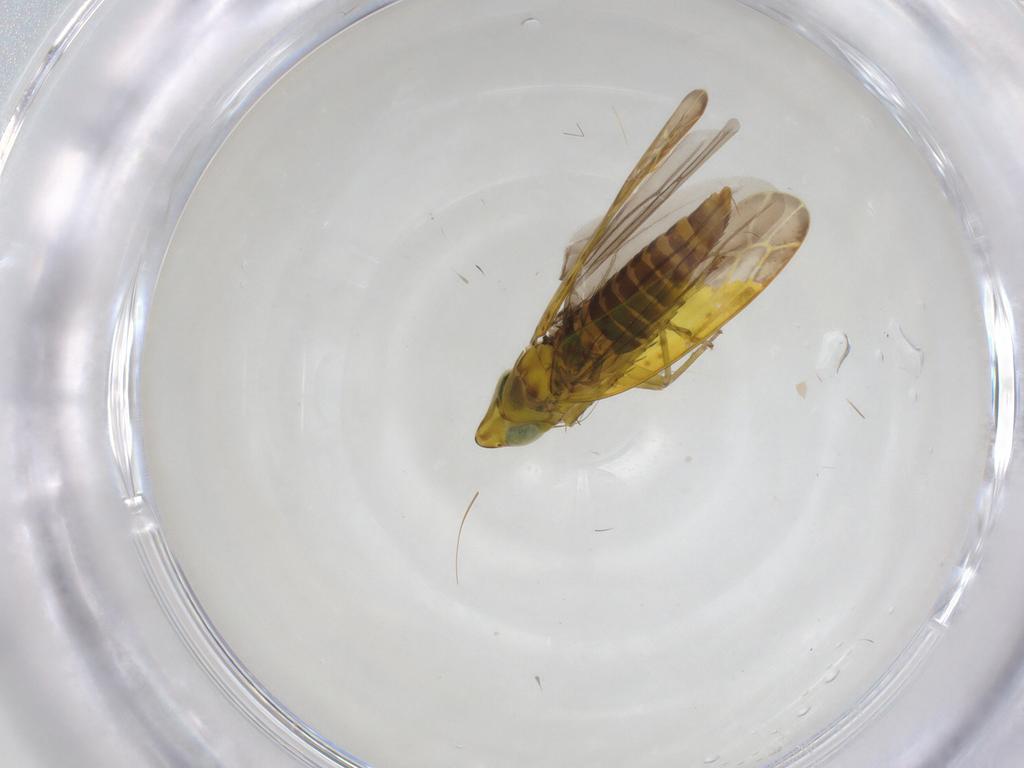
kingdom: Animalia
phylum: Arthropoda
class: Insecta
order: Hemiptera
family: Cicadellidae
